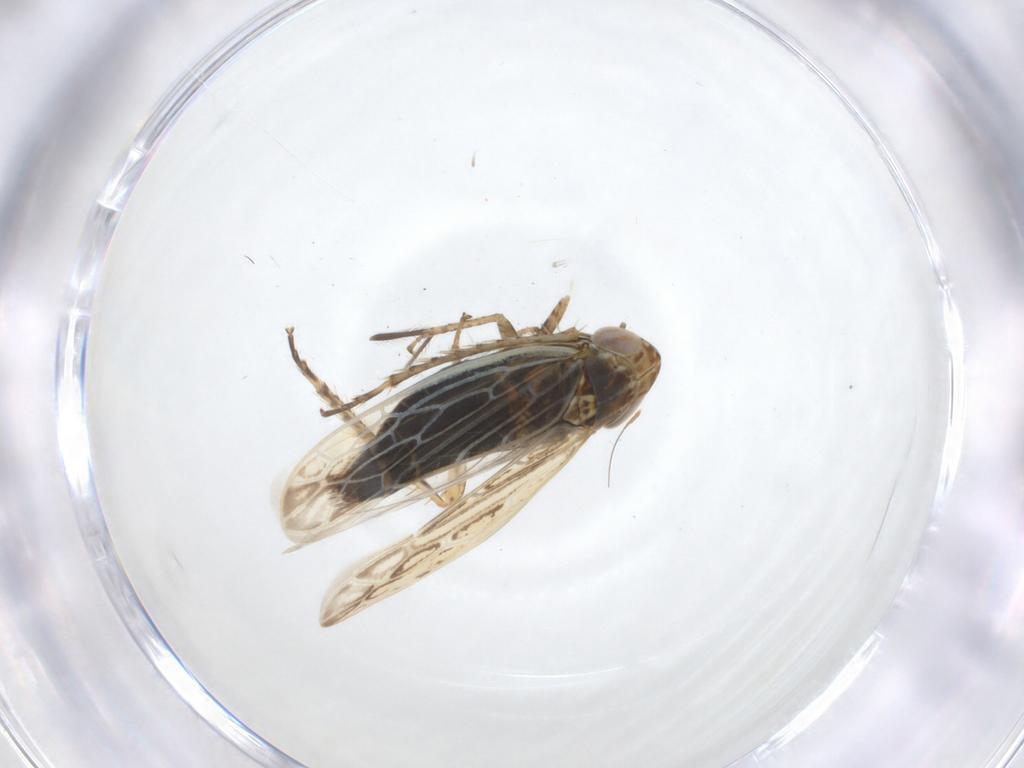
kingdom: Animalia
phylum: Arthropoda
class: Insecta
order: Hemiptera
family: Cicadellidae
